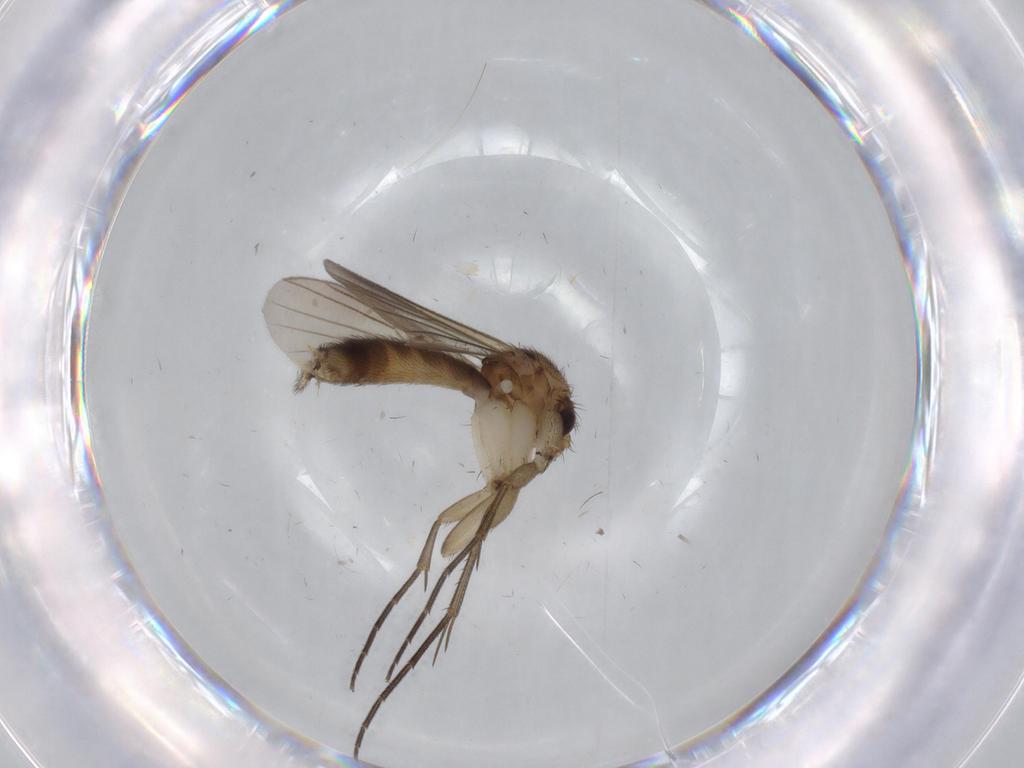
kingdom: Animalia
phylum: Arthropoda
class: Insecta
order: Diptera
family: Mycetophilidae
